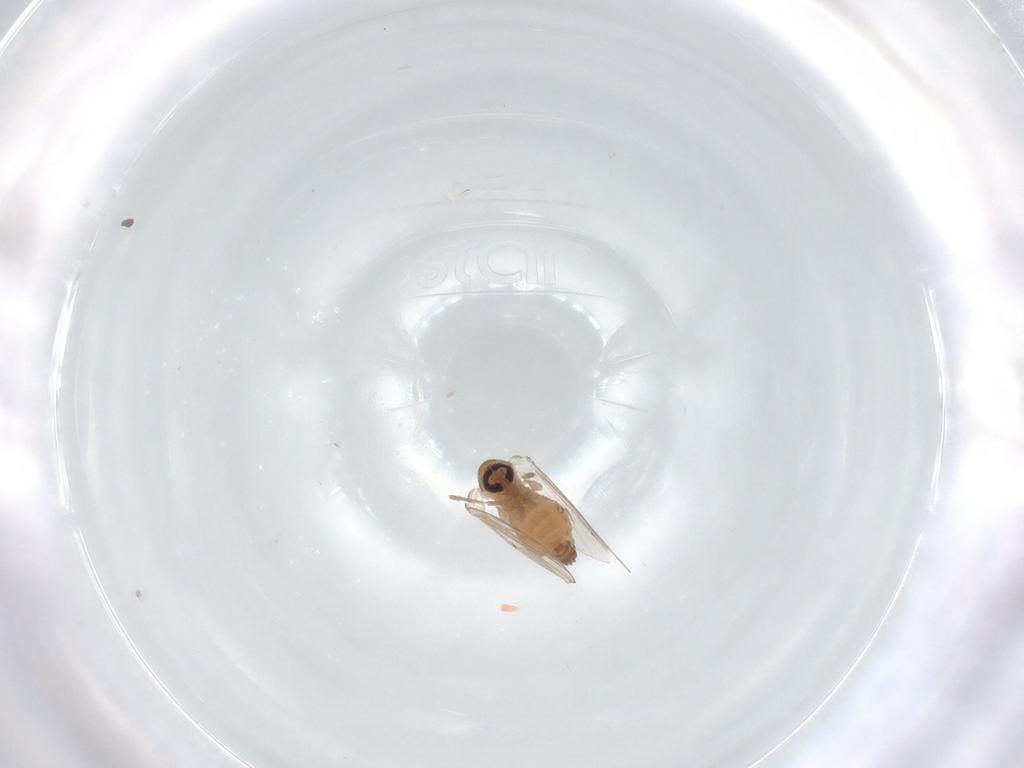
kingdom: Animalia
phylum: Arthropoda
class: Insecta
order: Diptera
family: Psychodidae
